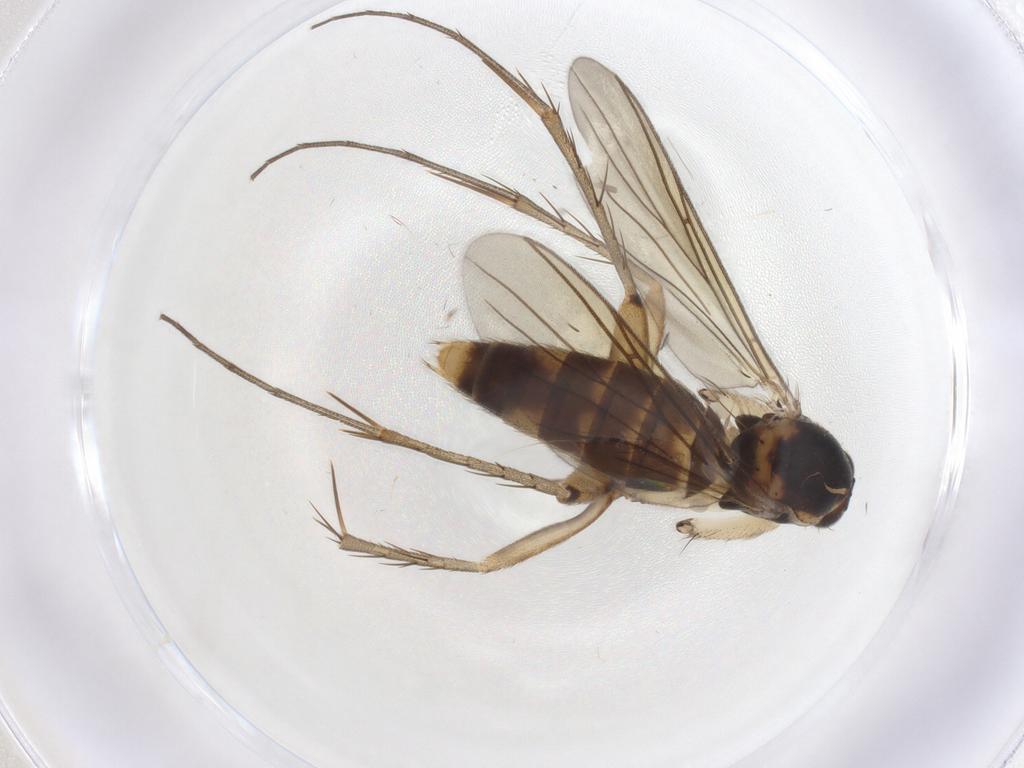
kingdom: Animalia
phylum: Arthropoda
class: Insecta
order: Diptera
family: Mycetophilidae
